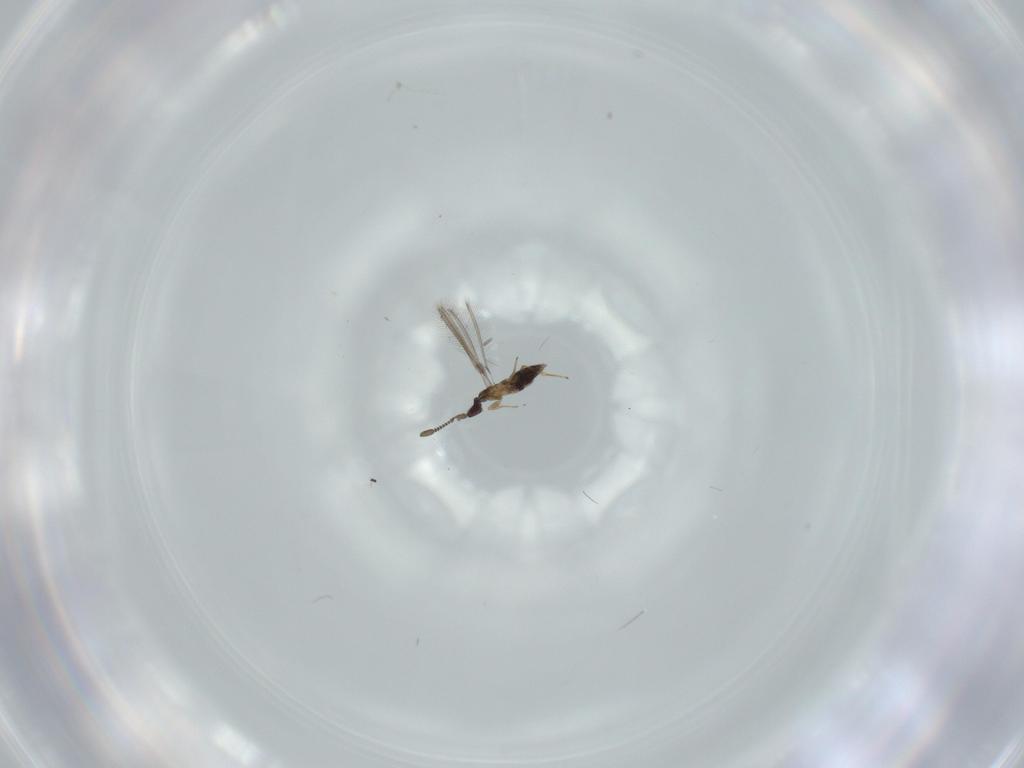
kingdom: Animalia
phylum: Arthropoda
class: Insecta
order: Hymenoptera
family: Mymaridae
